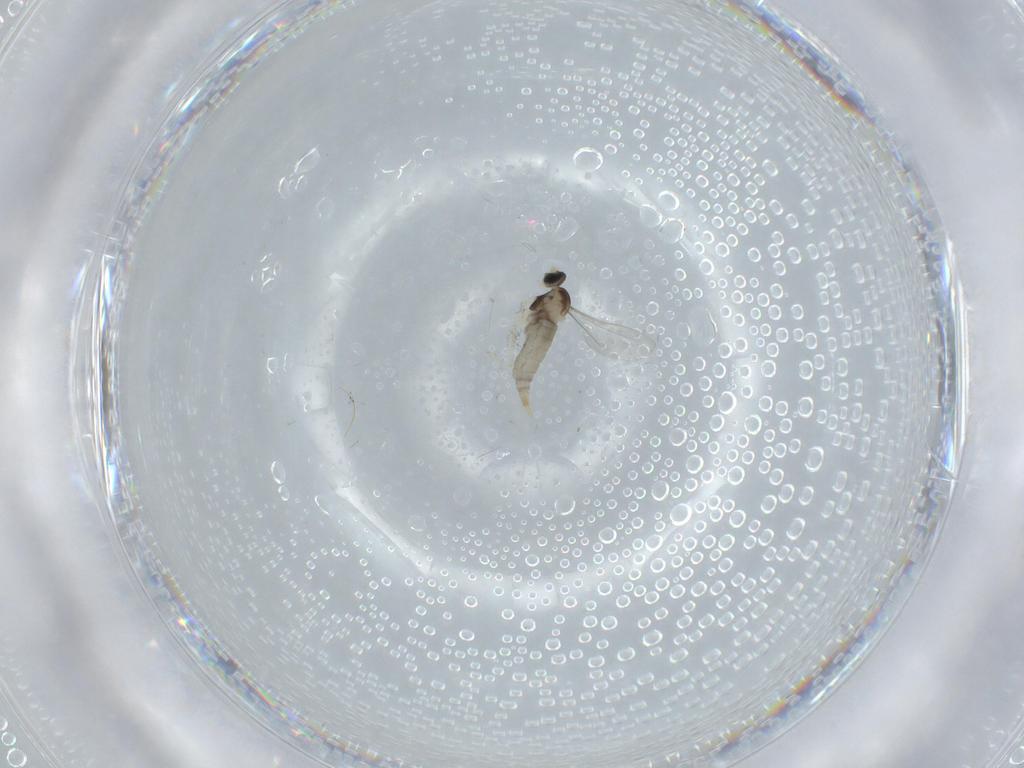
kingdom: Animalia
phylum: Arthropoda
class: Insecta
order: Diptera
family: Cecidomyiidae
